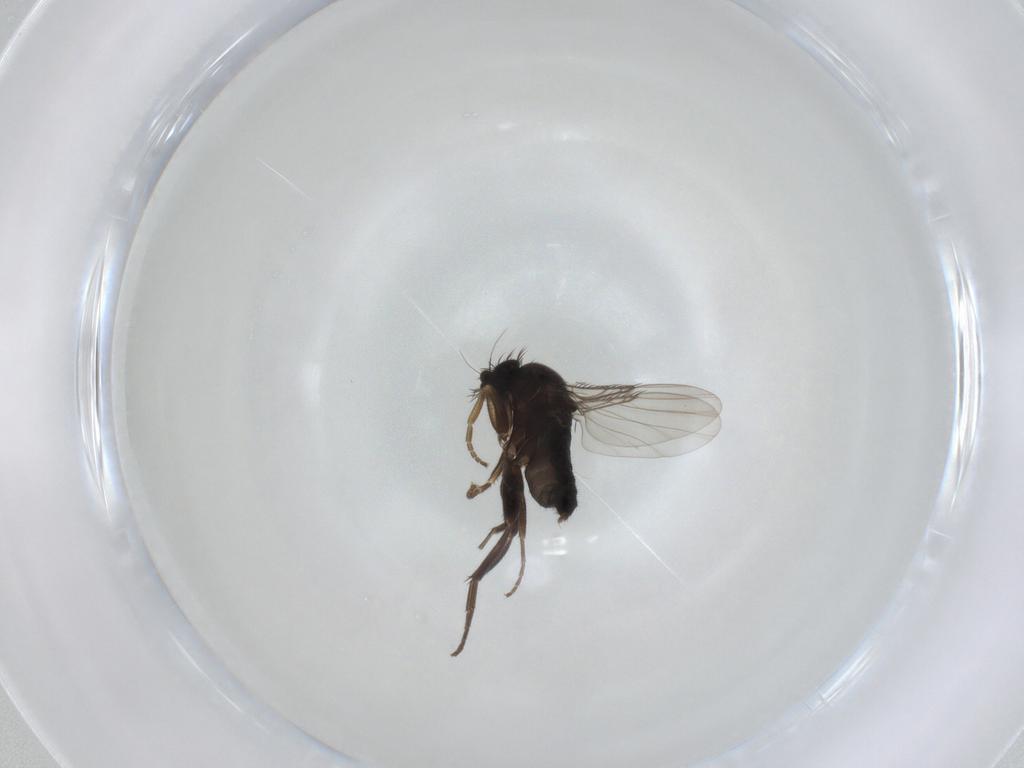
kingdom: Animalia
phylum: Arthropoda
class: Insecta
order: Diptera
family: Phoridae
